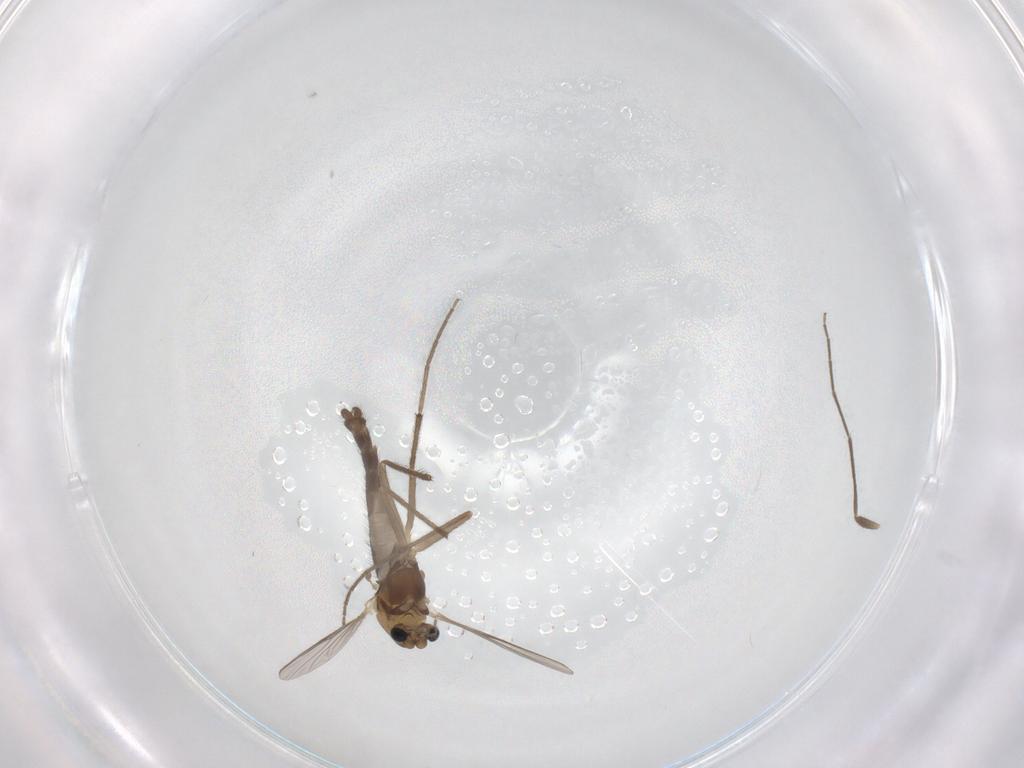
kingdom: Animalia
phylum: Arthropoda
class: Insecta
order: Diptera
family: Chironomidae
